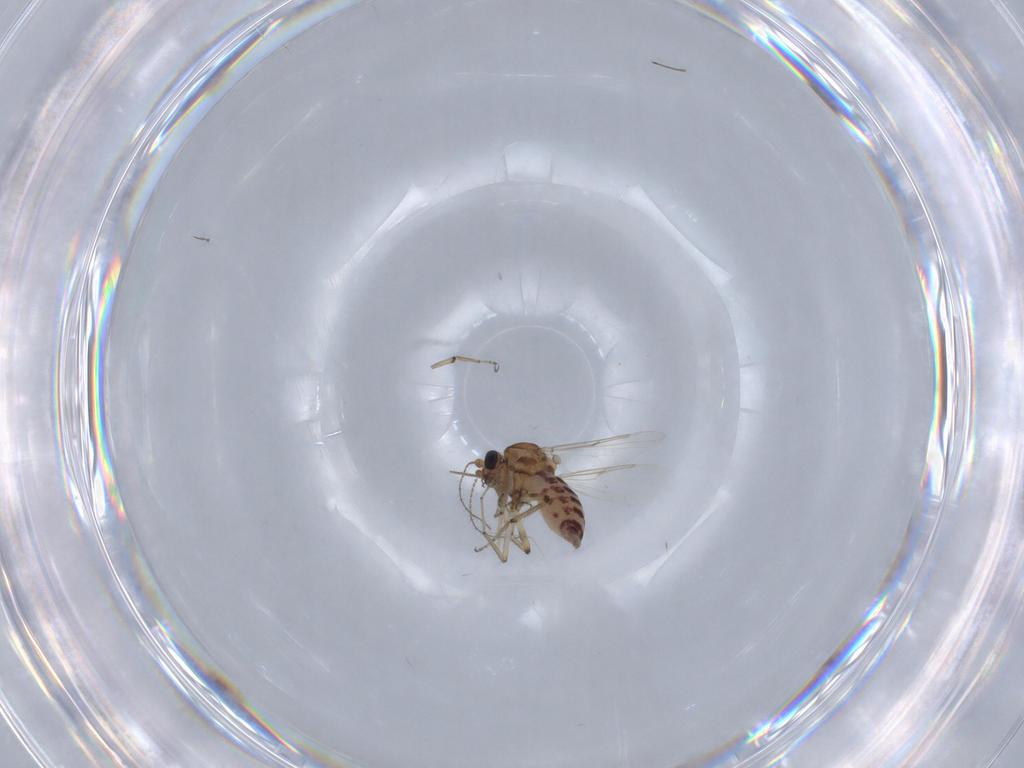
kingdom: Animalia
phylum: Arthropoda
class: Insecta
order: Diptera
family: Ceratopogonidae
